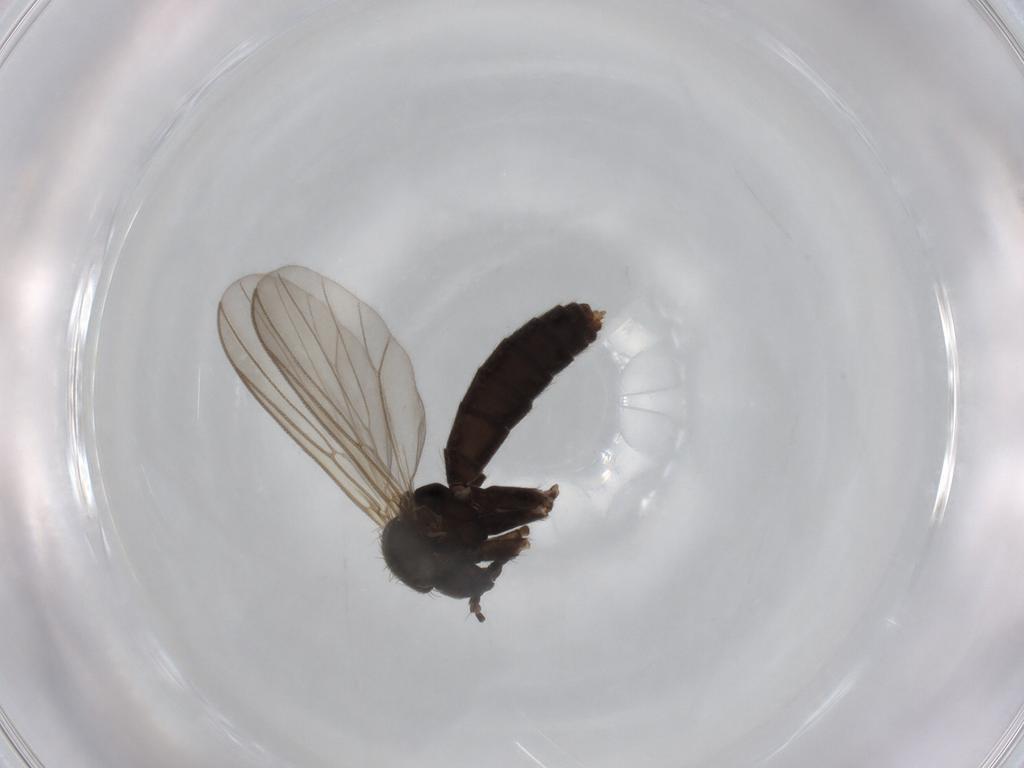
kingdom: Animalia
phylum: Arthropoda
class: Insecta
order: Diptera
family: Mycetophilidae
